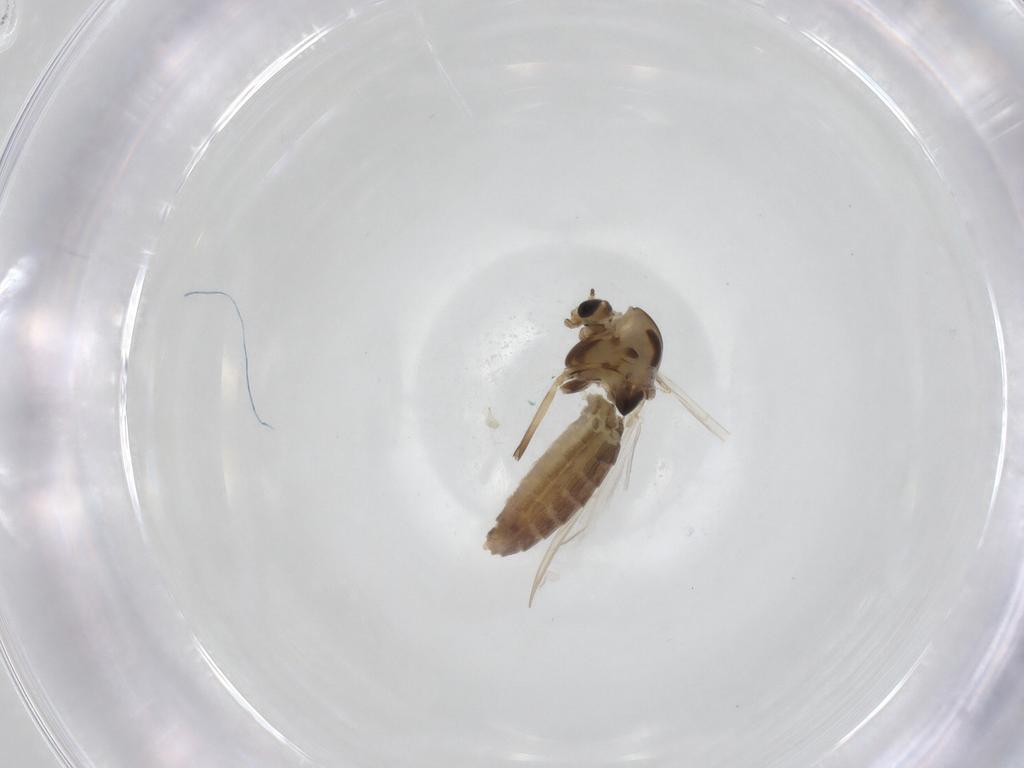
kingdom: Animalia
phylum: Arthropoda
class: Insecta
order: Diptera
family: Chironomidae
